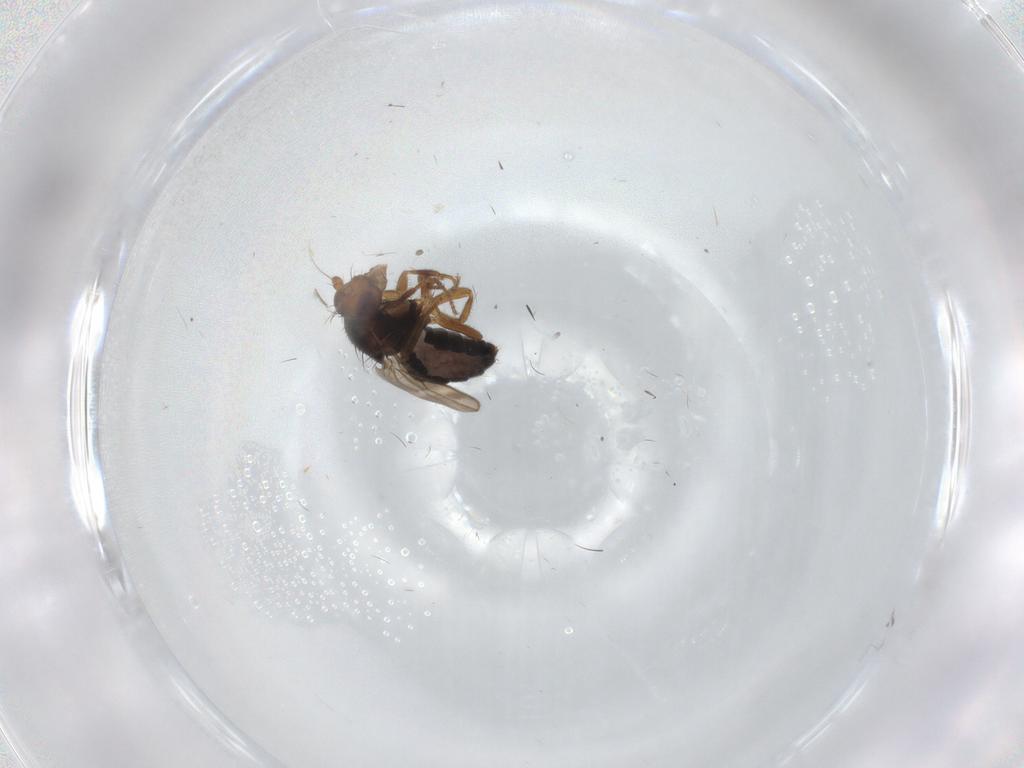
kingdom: Animalia
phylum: Arthropoda
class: Insecta
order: Diptera
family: Sphaeroceridae
